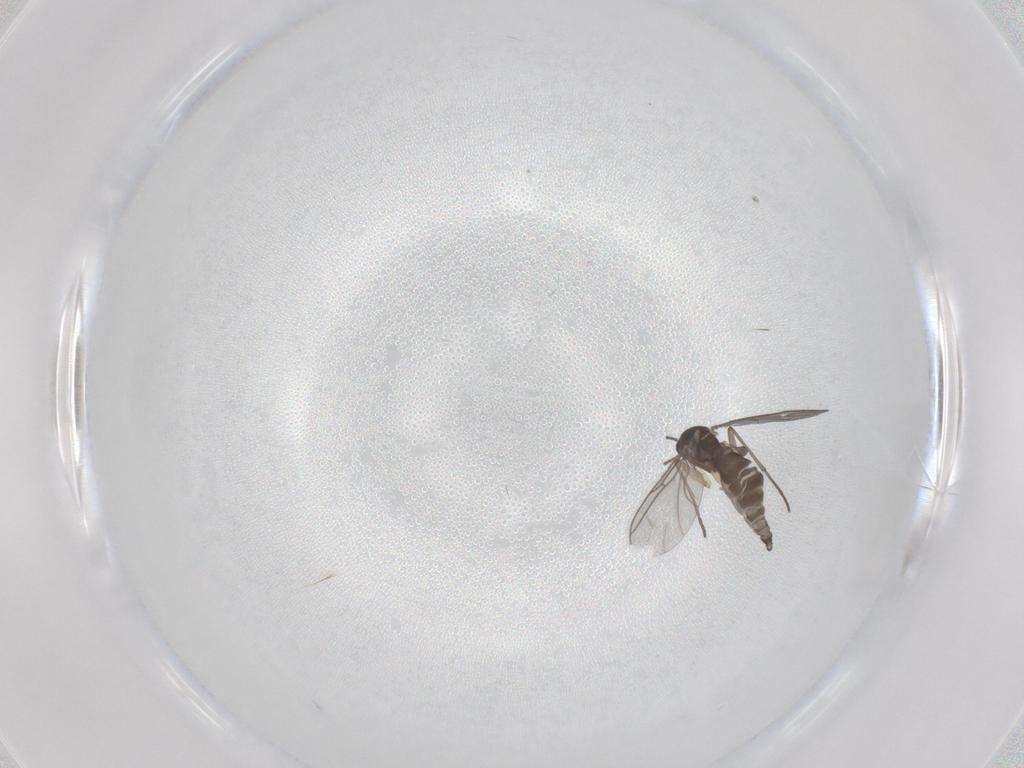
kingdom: Animalia
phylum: Arthropoda
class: Insecta
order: Diptera
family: Sciaridae
